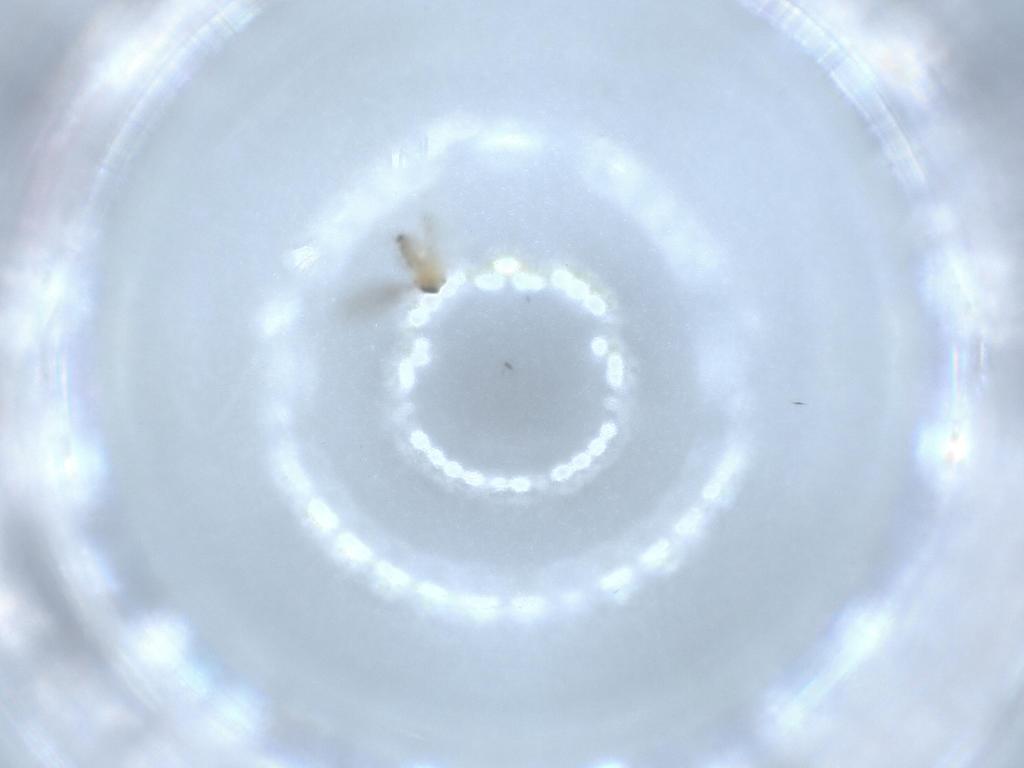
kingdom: Animalia
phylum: Arthropoda
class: Insecta
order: Diptera
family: Cecidomyiidae
